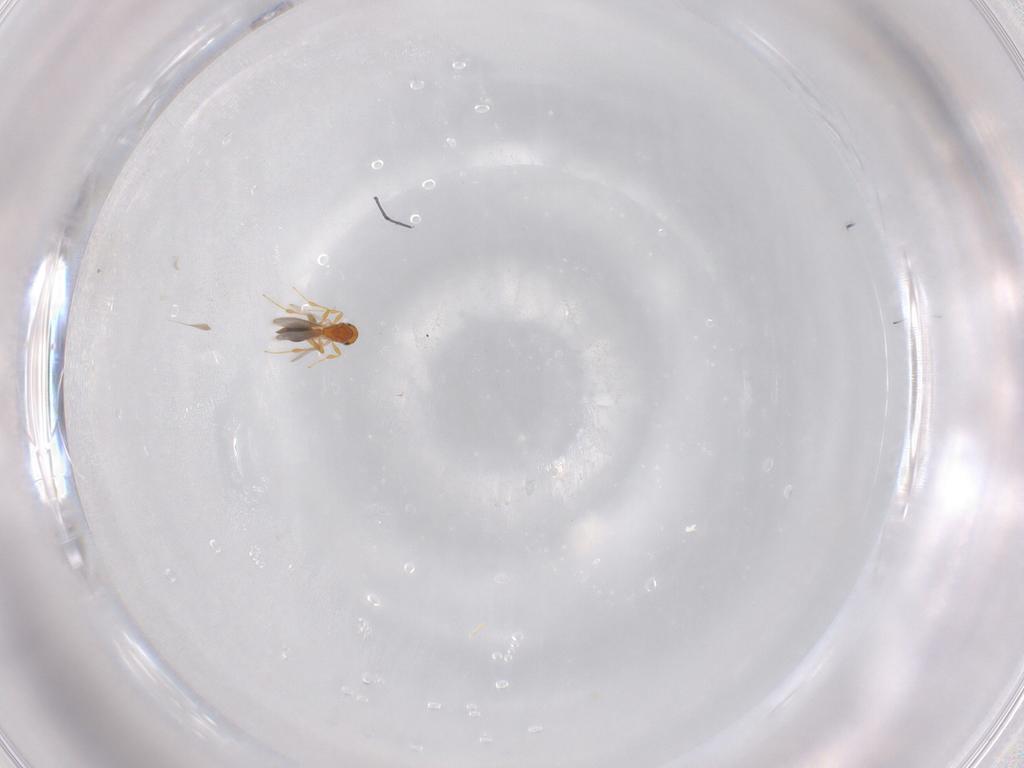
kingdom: Animalia
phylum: Arthropoda
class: Insecta
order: Hymenoptera
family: Platygastridae
